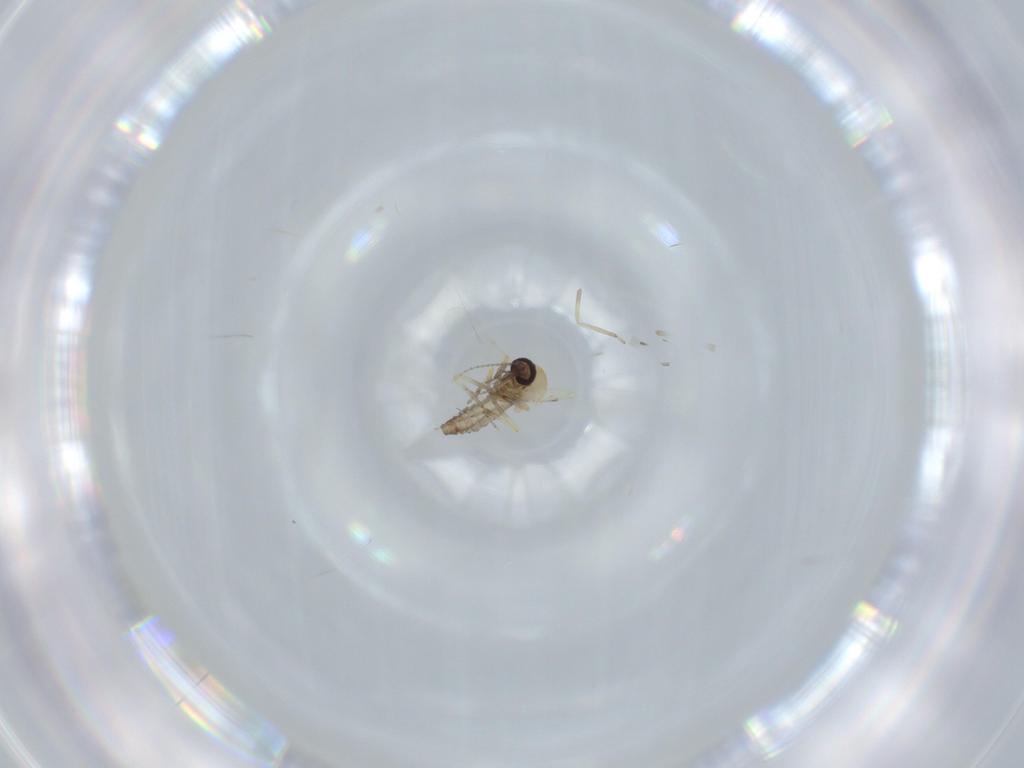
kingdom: Animalia
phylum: Arthropoda
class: Insecta
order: Diptera
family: Ceratopogonidae
